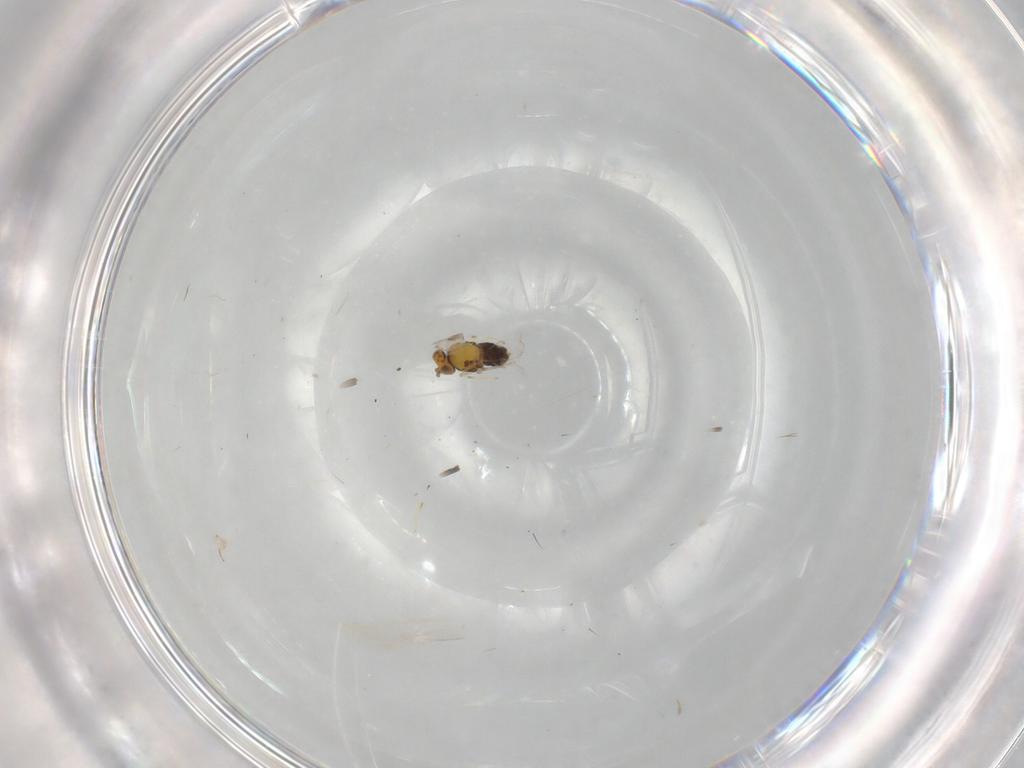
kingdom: Animalia
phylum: Arthropoda
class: Insecta
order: Hymenoptera
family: Aphelinidae
